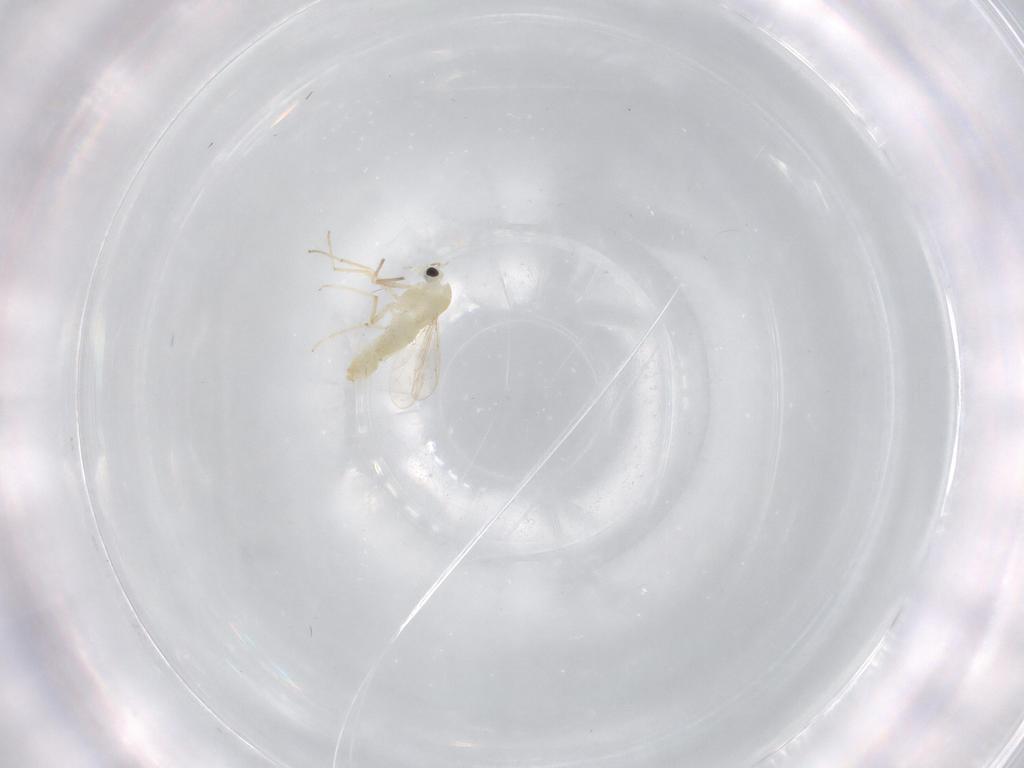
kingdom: Animalia
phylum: Arthropoda
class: Insecta
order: Diptera
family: Chironomidae
